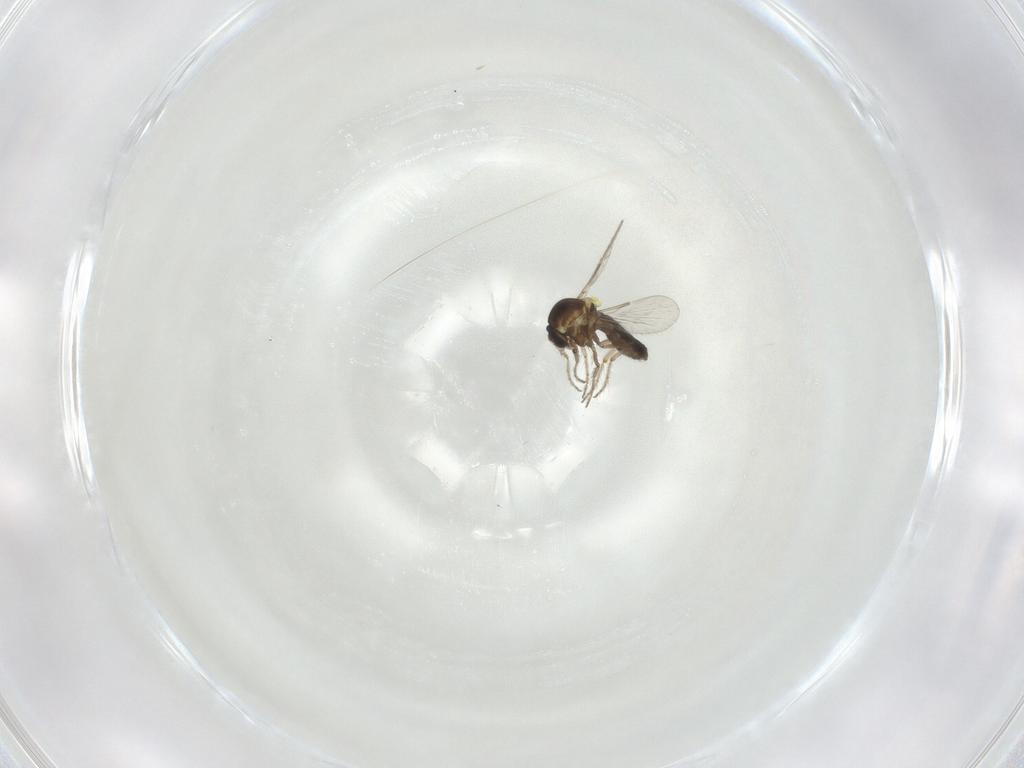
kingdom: Animalia
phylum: Arthropoda
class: Insecta
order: Diptera
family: Ceratopogonidae
